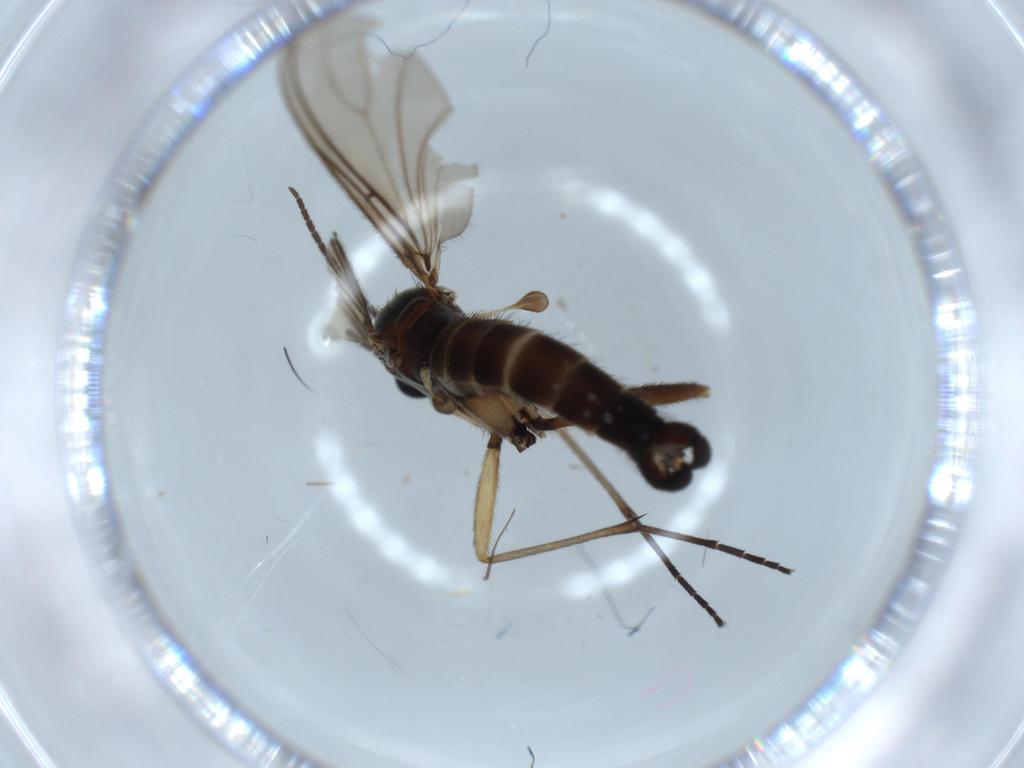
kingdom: Animalia
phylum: Arthropoda
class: Insecta
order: Diptera
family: Sciaridae
